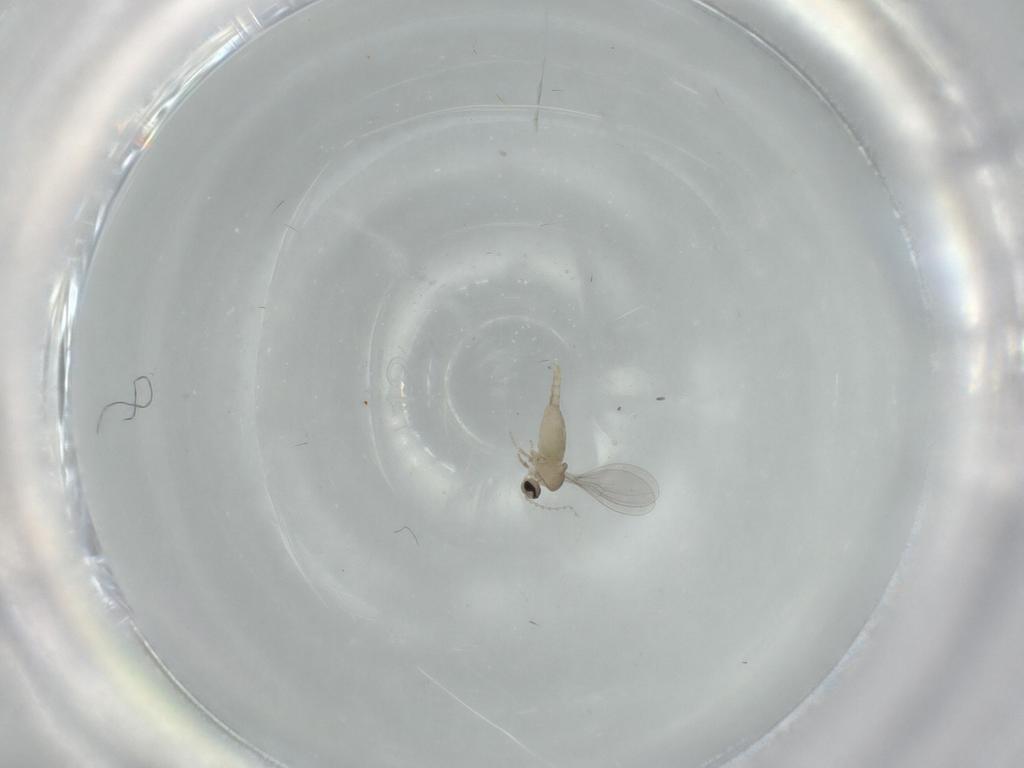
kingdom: Animalia
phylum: Arthropoda
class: Insecta
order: Diptera
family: Cecidomyiidae
